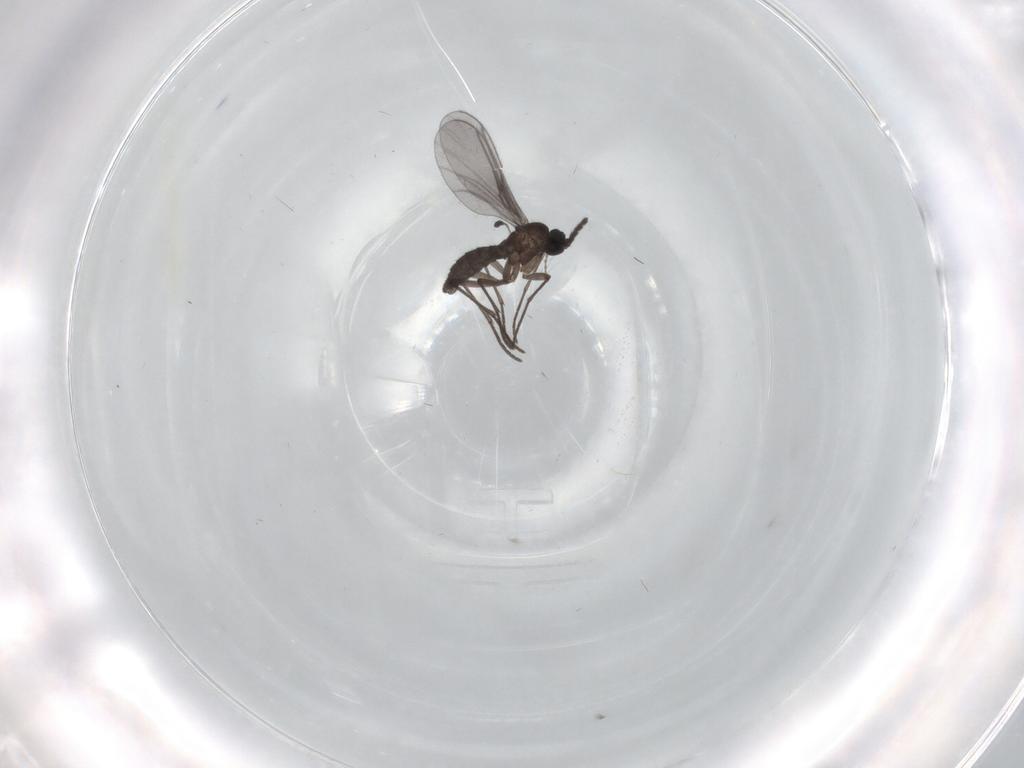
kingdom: Animalia
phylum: Arthropoda
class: Insecta
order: Diptera
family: Drosophilidae
